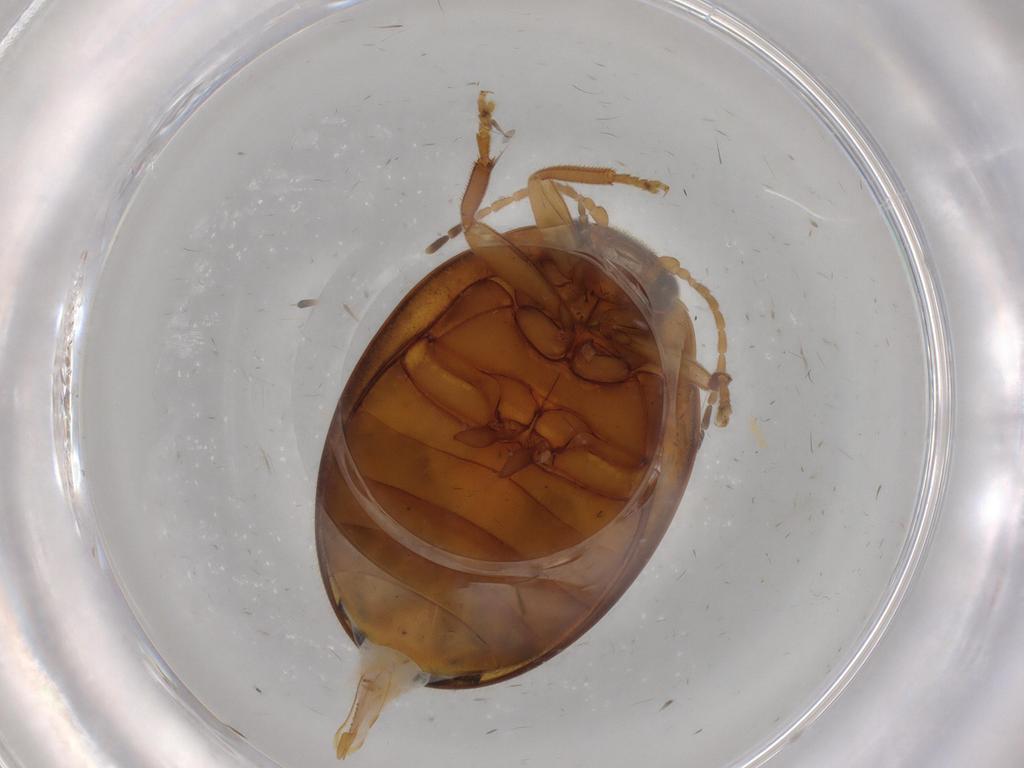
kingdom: Animalia
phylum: Arthropoda
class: Insecta
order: Coleoptera
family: Scirtidae
